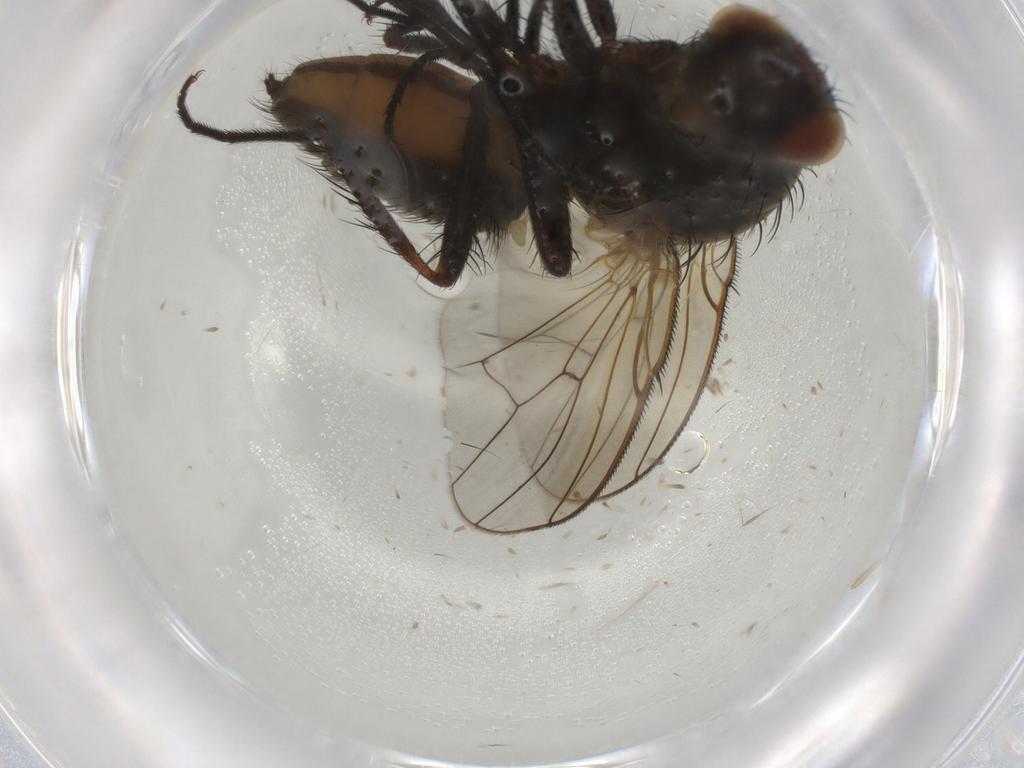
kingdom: Animalia
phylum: Arthropoda
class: Insecta
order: Diptera
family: Anthomyiidae
